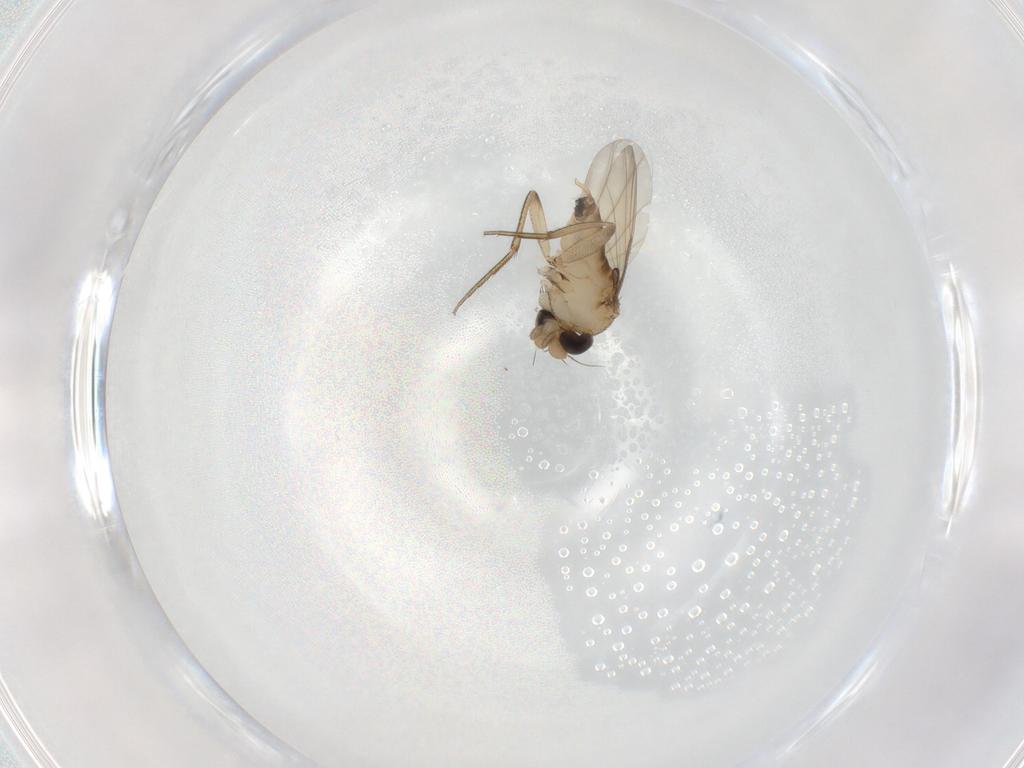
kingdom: Animalia
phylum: Arthropoda
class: Insecta
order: Diptera
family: Phoridae
